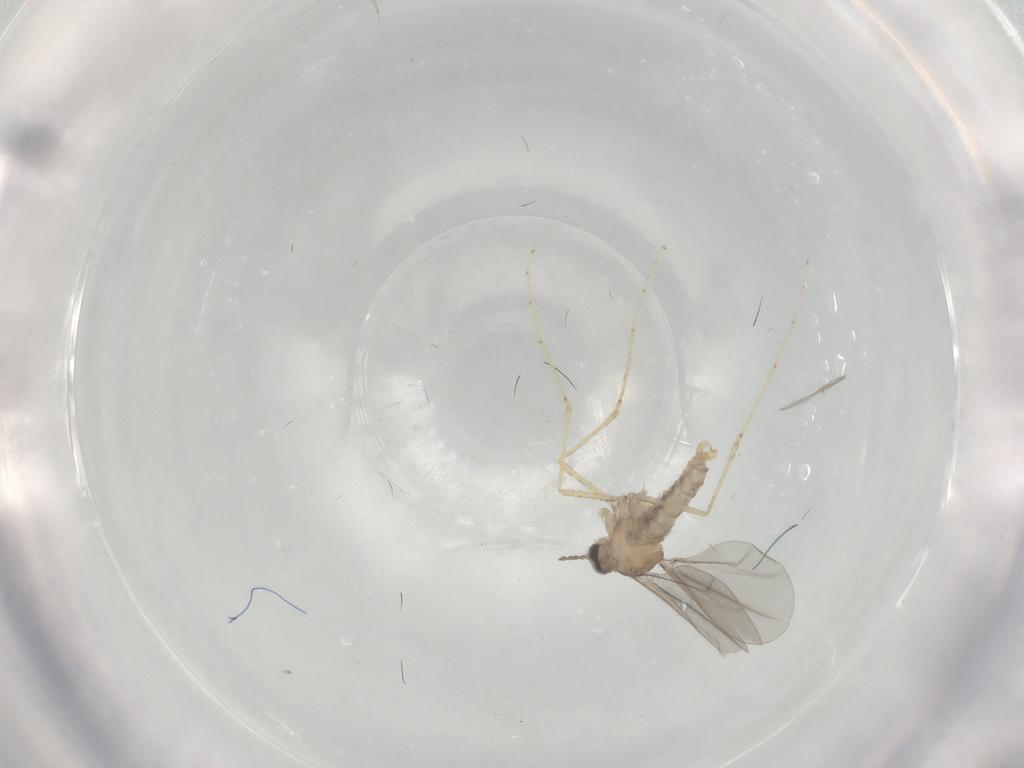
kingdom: Animalia
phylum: Arthropoda
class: Insecta
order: Diptera
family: Cecidomyiidae
